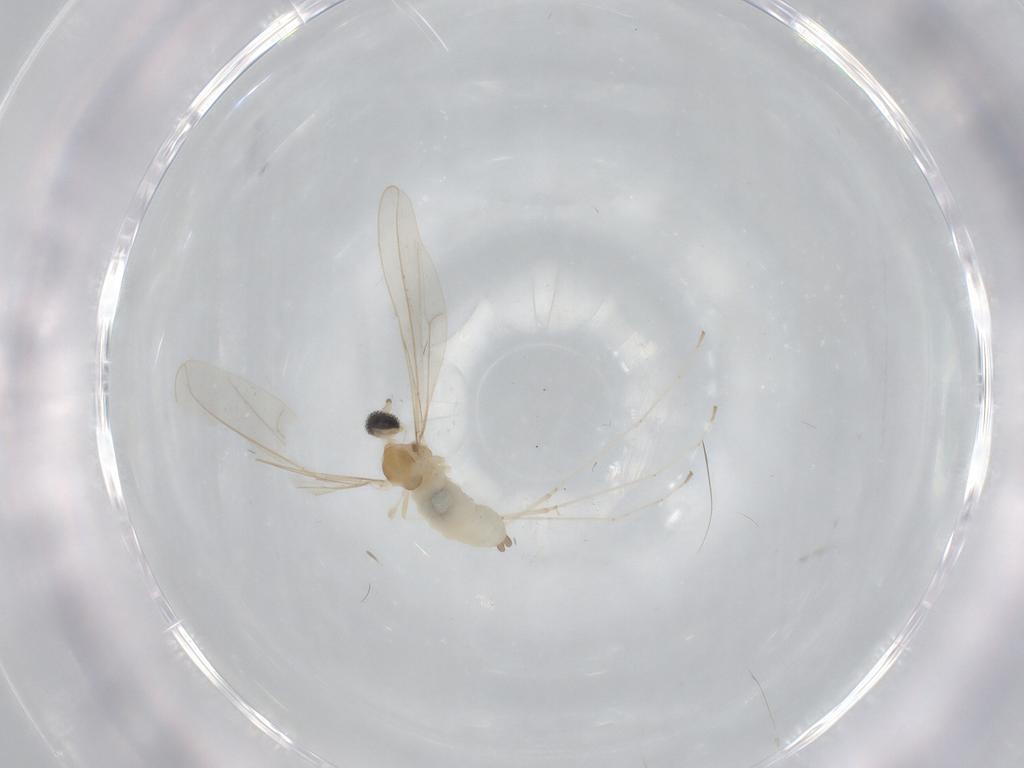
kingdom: Animalia
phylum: Arthropoda
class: Insecta
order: Diptera
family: Cecidomyiidae
